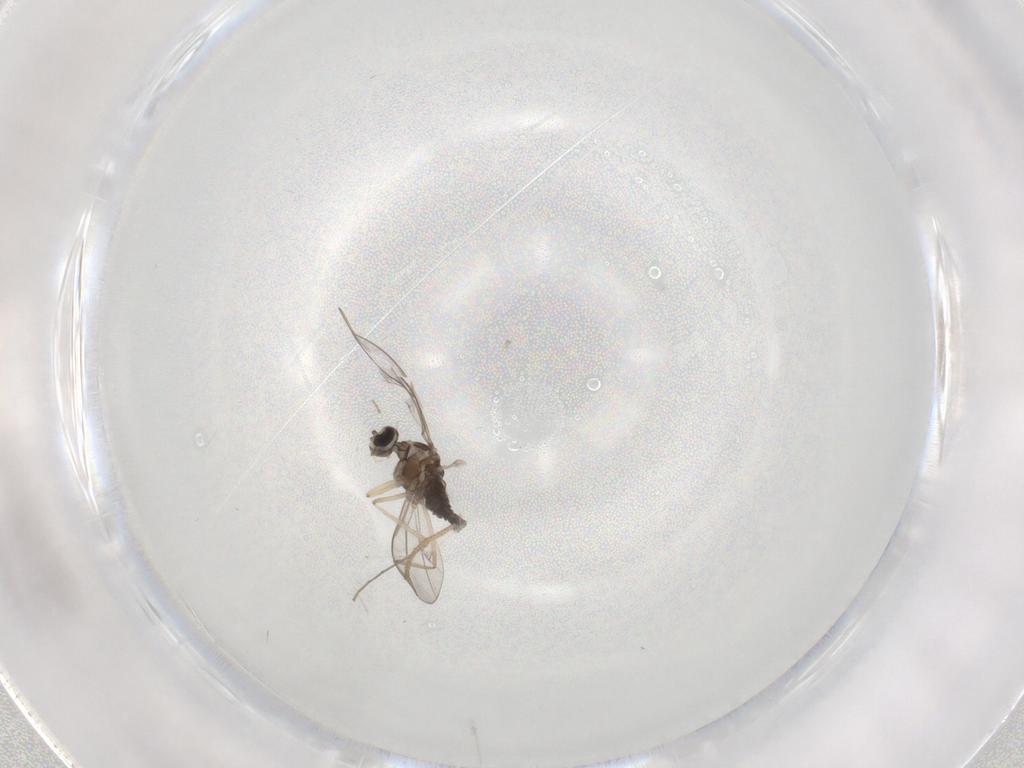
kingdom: Animalia
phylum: Arthropoda
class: Insecta
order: Diptera
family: Cecidomyiidae
